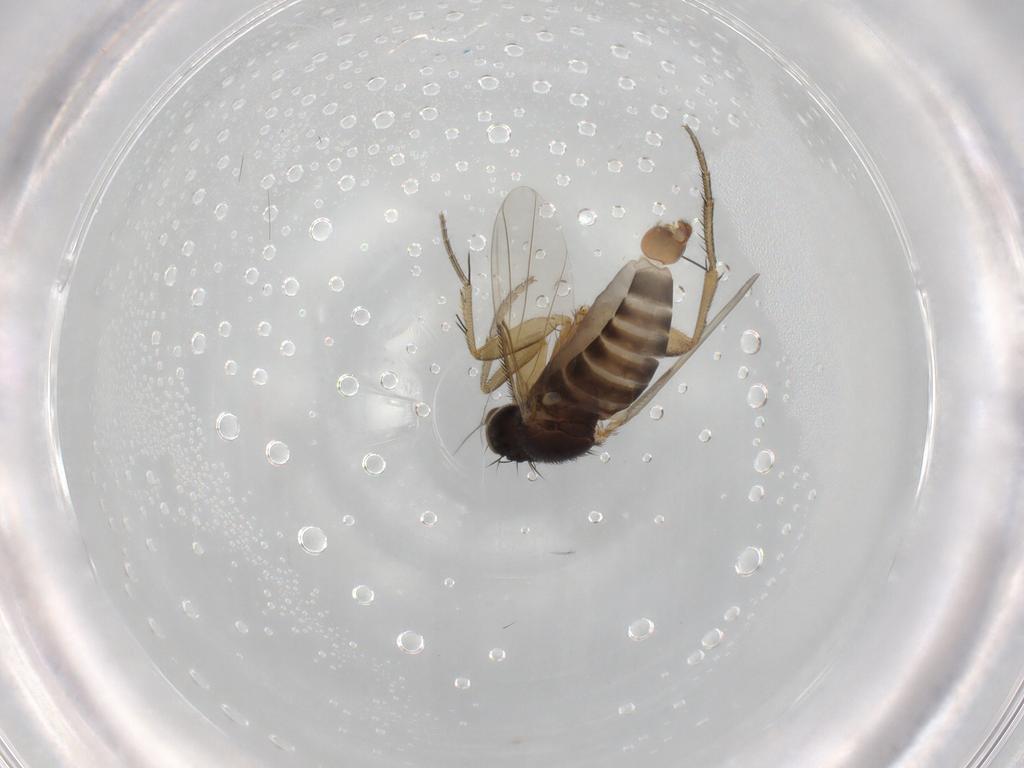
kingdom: Animalia
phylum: Arthropoda
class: Insecta
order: Diptera
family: Phoridae
